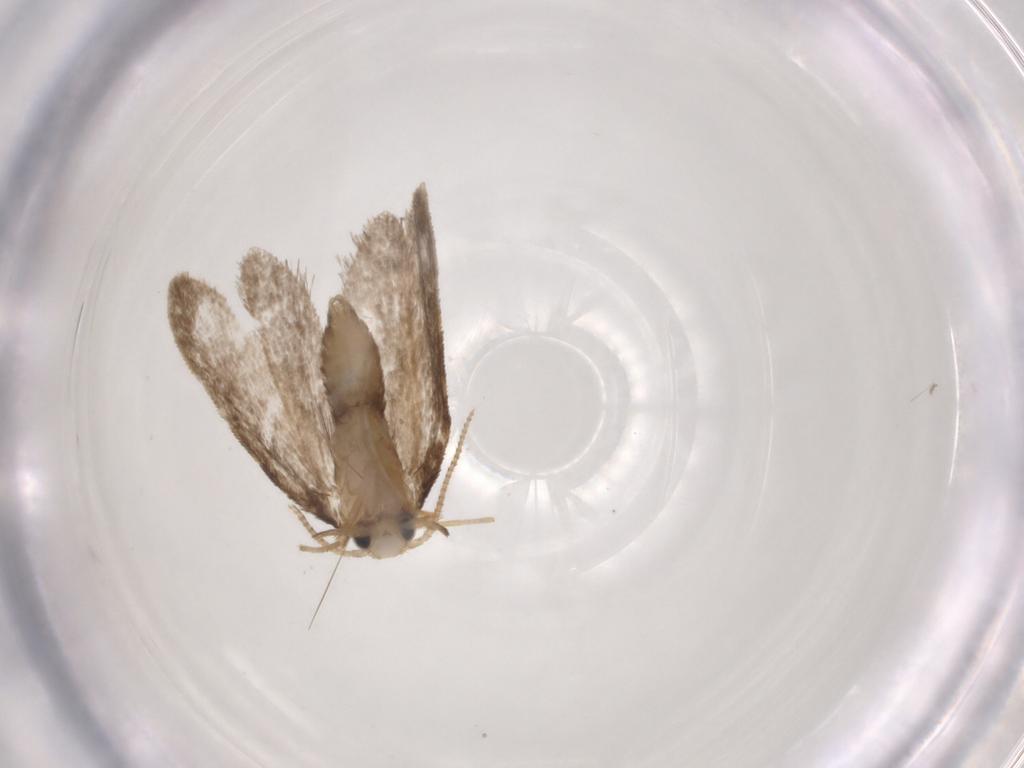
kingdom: Animalia
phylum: Arthropoda
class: Insecta
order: Lepidoptera
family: Psychidae
